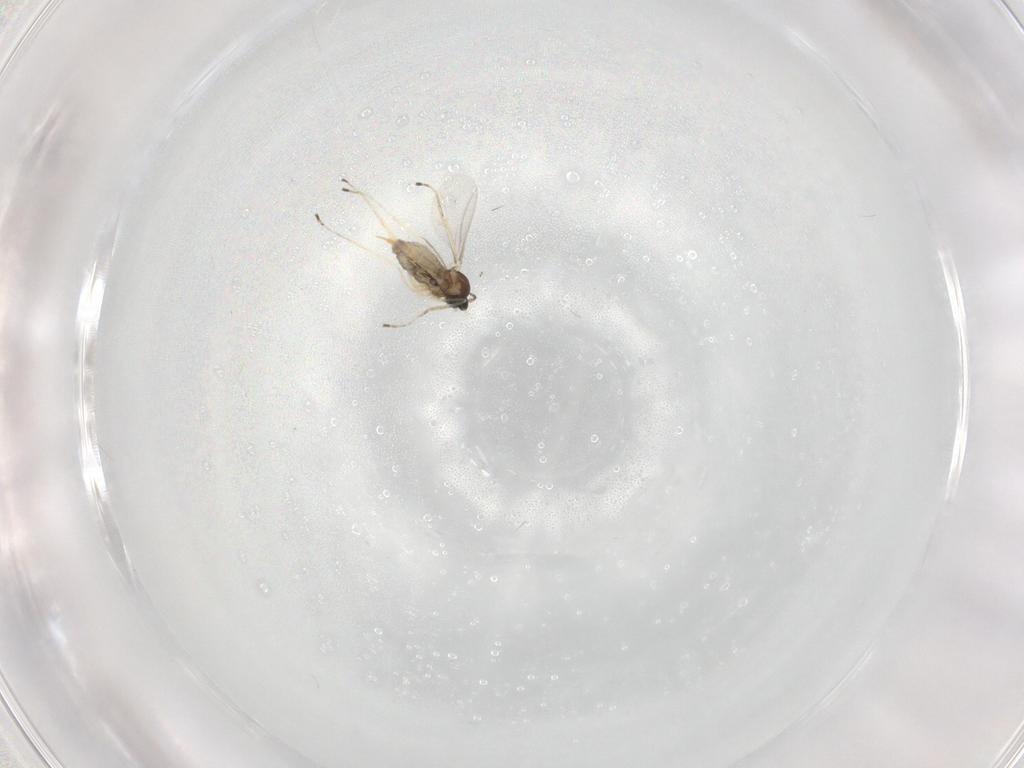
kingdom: Animalia
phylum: Arthropoda
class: Insecta
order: Diptera
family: Cecidomyiidae
